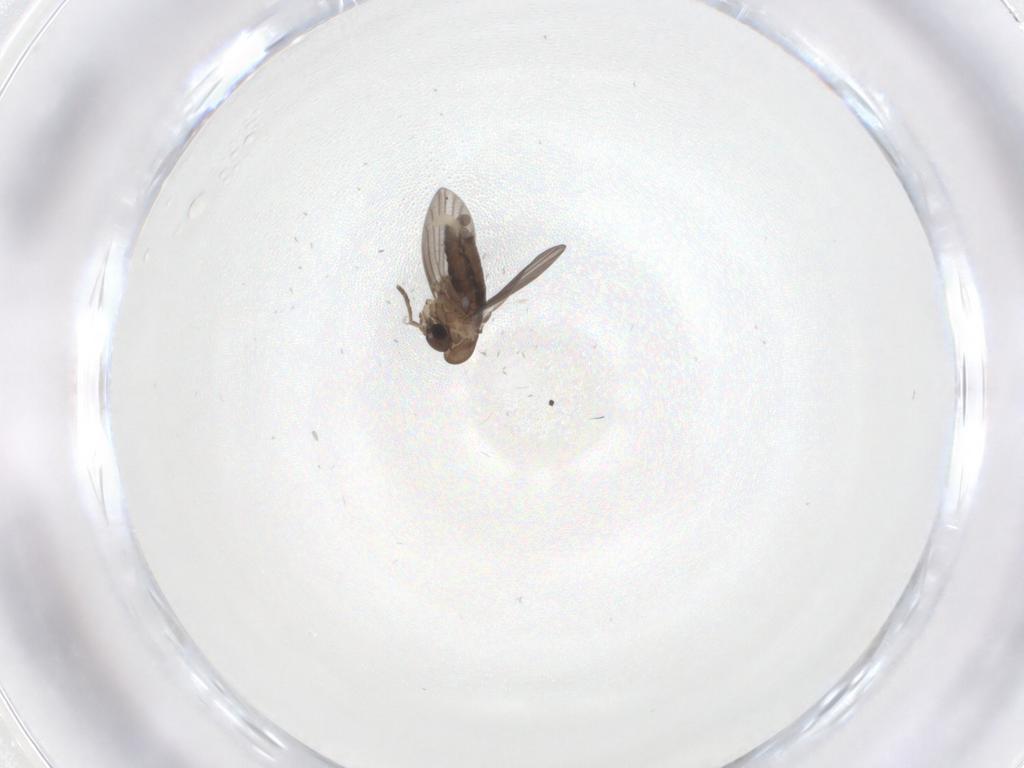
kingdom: Animalia
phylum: Arthropoda
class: Insecta
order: Diptera
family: Psychodidae
